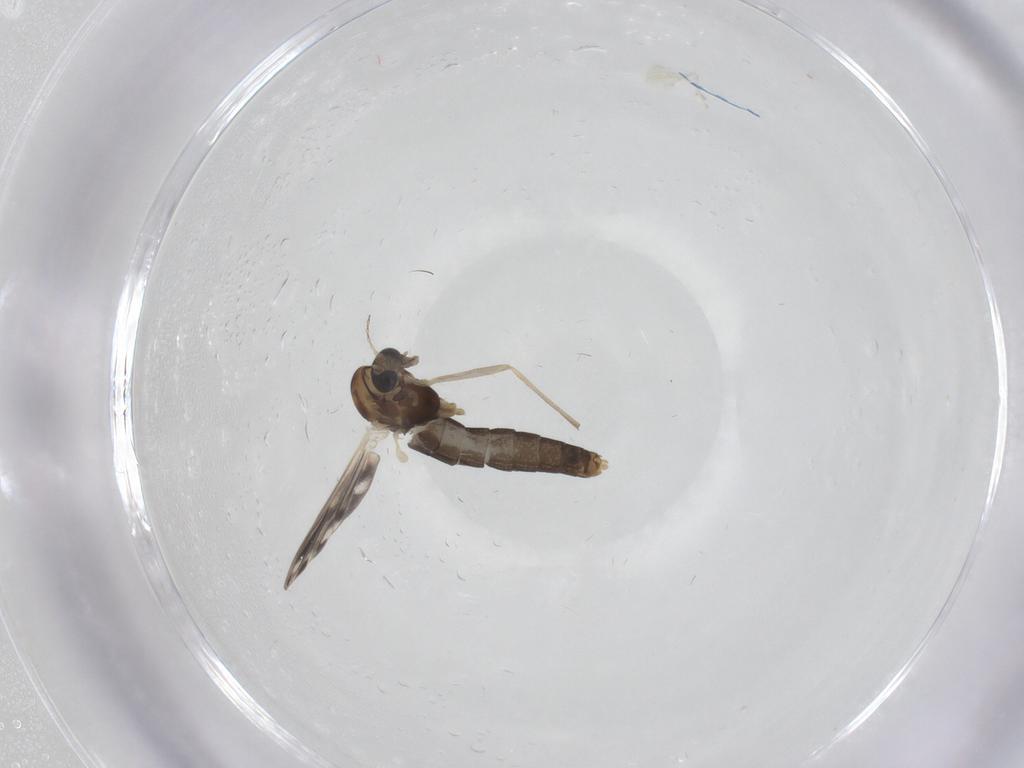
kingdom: Animalia
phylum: Arthropoda
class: Insecta
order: Diptera
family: Chironomidae
